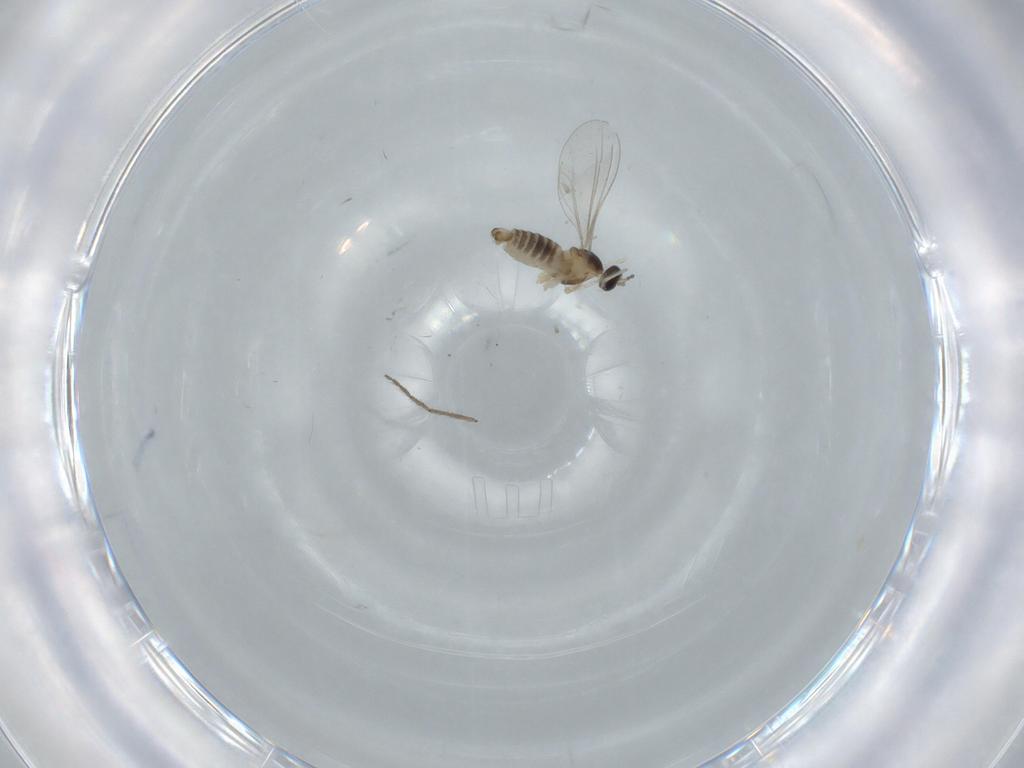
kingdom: Animalia
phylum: Arthropoda
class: Insecta
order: Diptera
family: Cecidomyiidae
